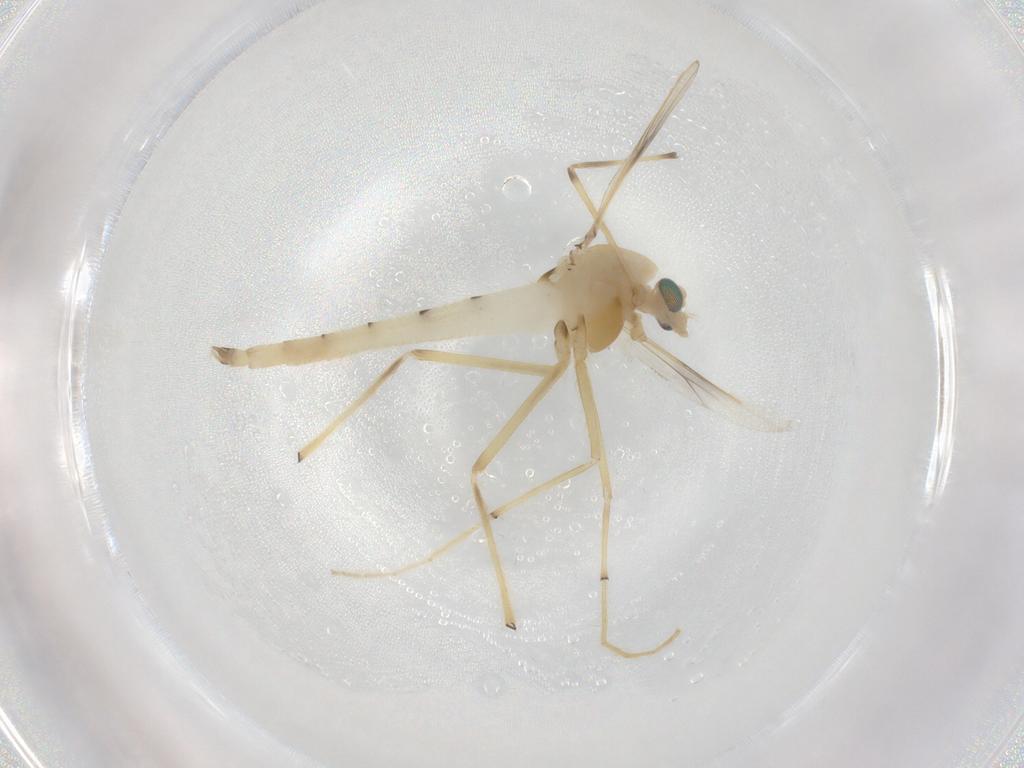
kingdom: Animalia
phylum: Arthropoda
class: Insecta
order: Diptera
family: Chironomidae
